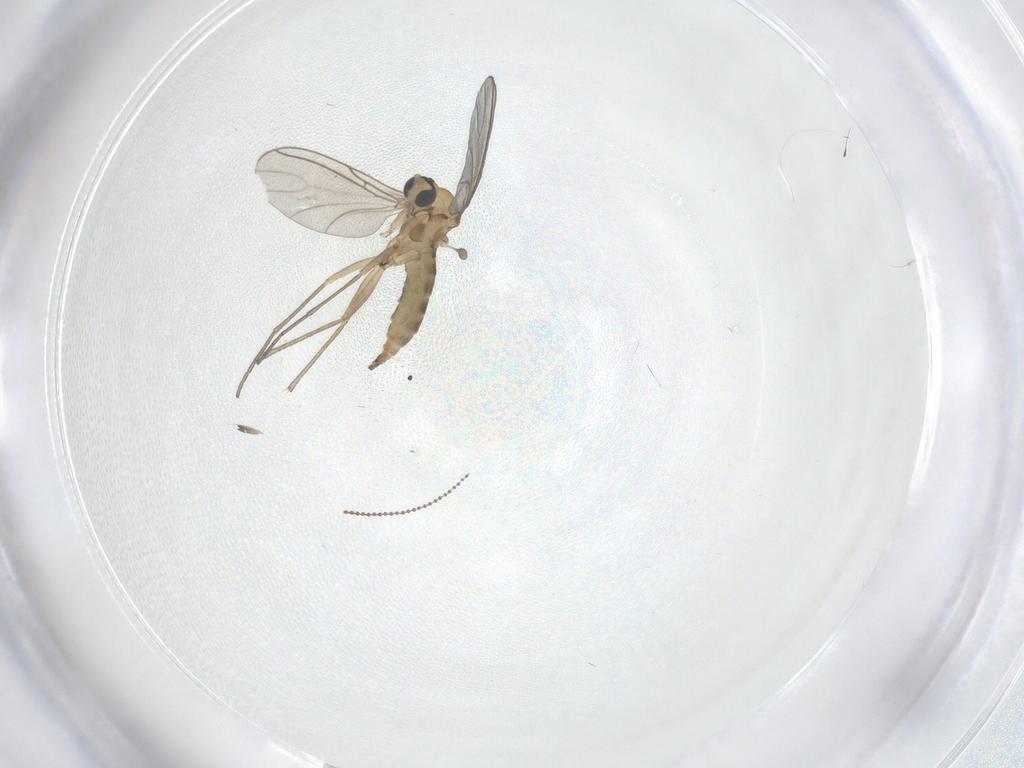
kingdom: Animalia
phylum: Arthropoda
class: Insecta
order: Diptera
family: Sciaridae
